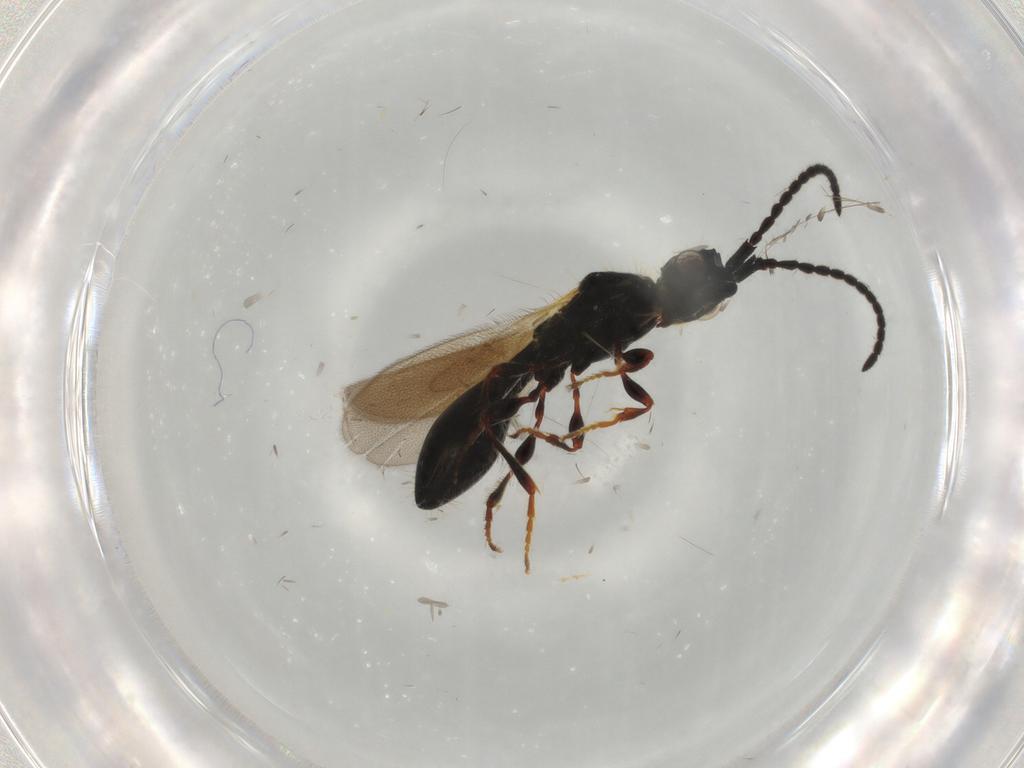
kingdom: Animalia
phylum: Arthropoda
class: Insecta
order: Hymenoptera
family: Diapriidae
